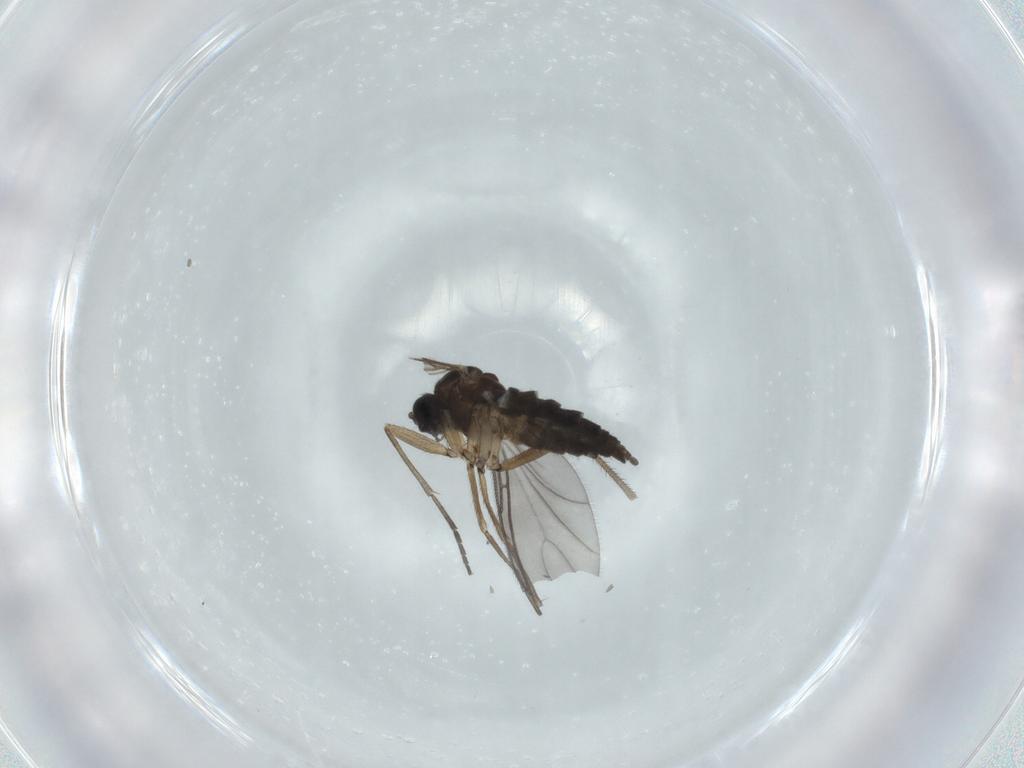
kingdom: Animalia
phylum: Arthropoda
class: Insecta
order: Diptera
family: Sciaridae
